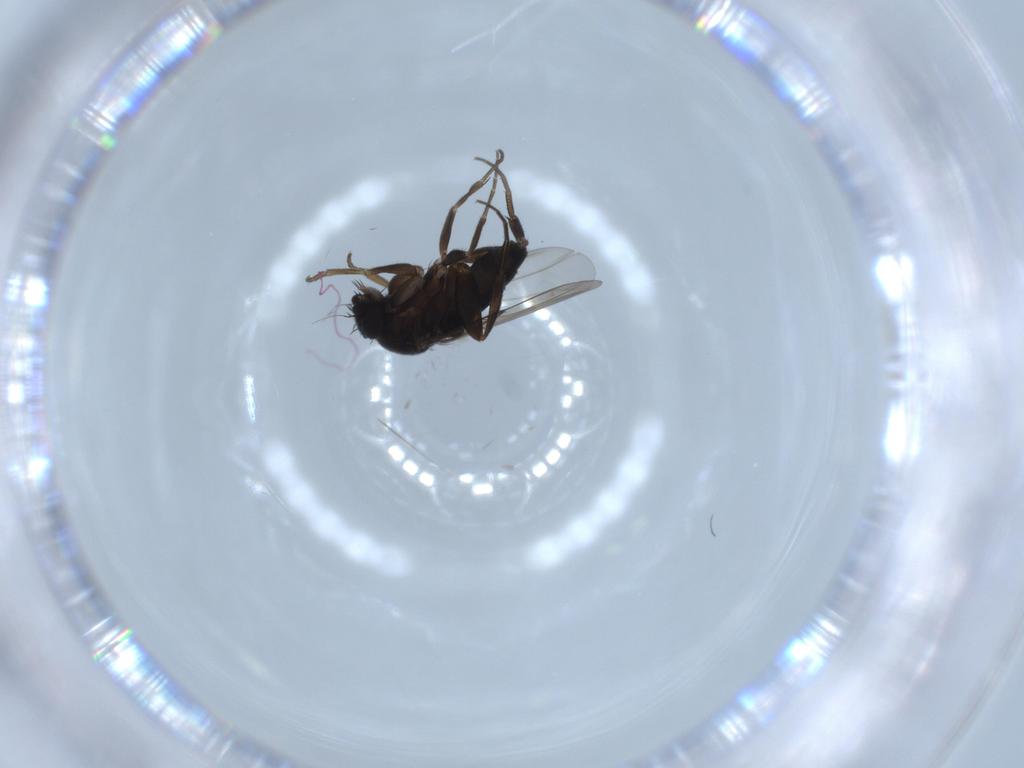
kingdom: Animalia
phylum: Arthropoda
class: Insecta
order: Diptera
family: Phoridae
